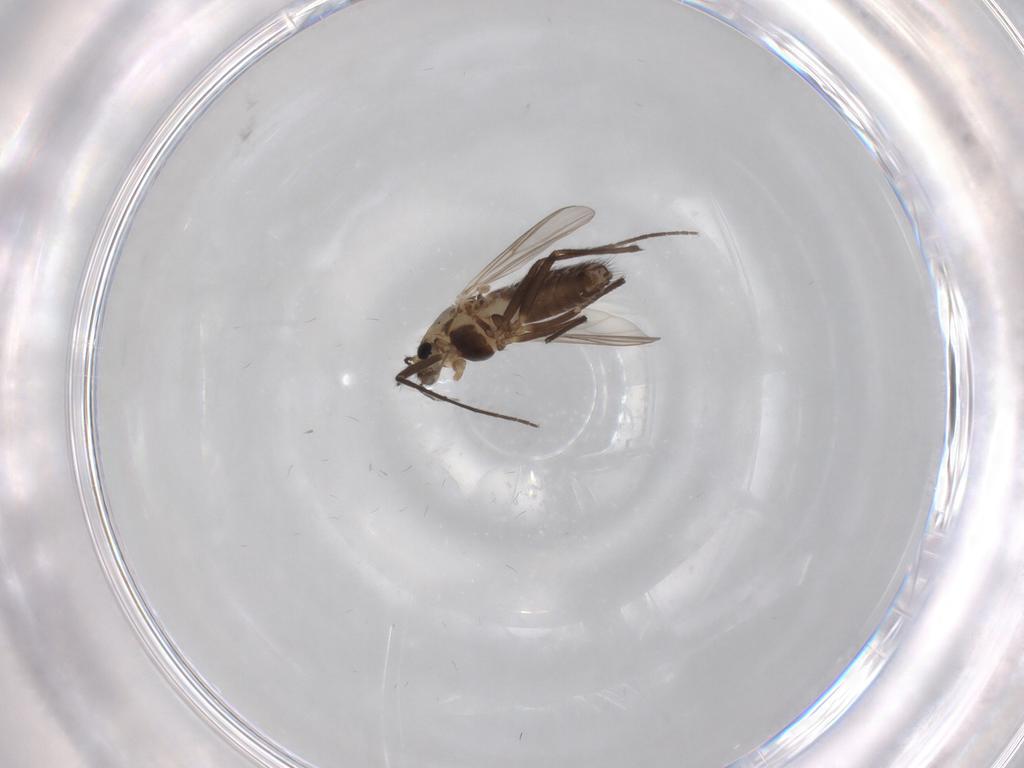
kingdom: Animalia
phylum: Arthropoda
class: Insecta
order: Diptera
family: Chironomidae
